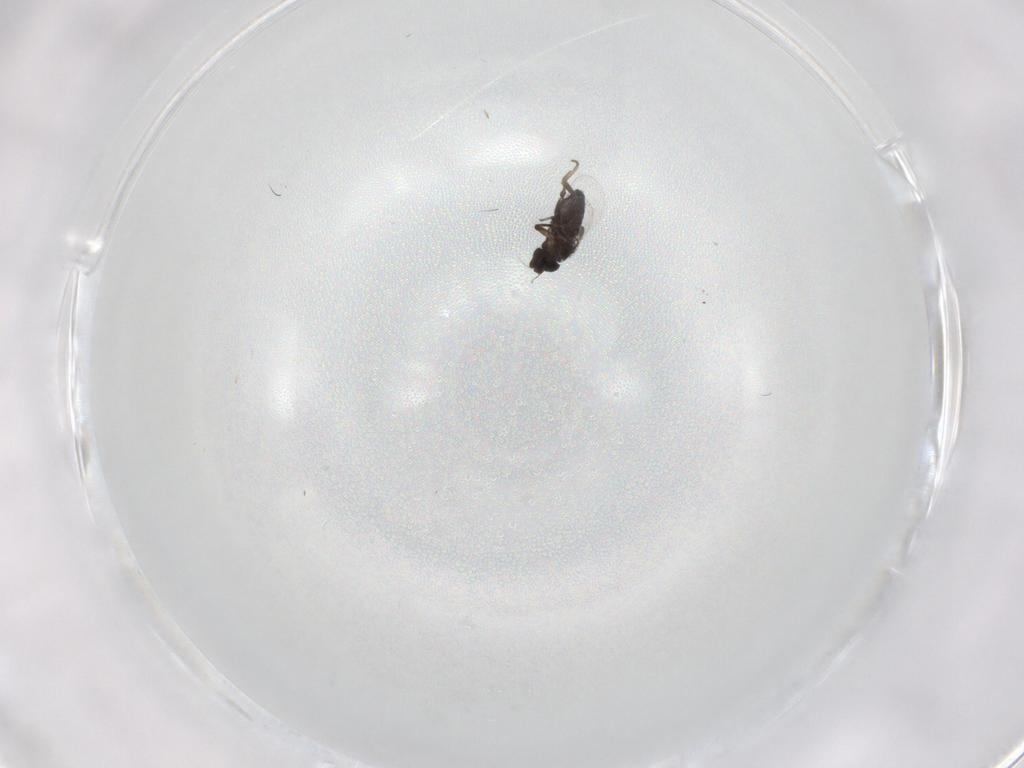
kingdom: Animalia
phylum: Arthropoda
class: Insecta
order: Diptera
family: Phoridae
